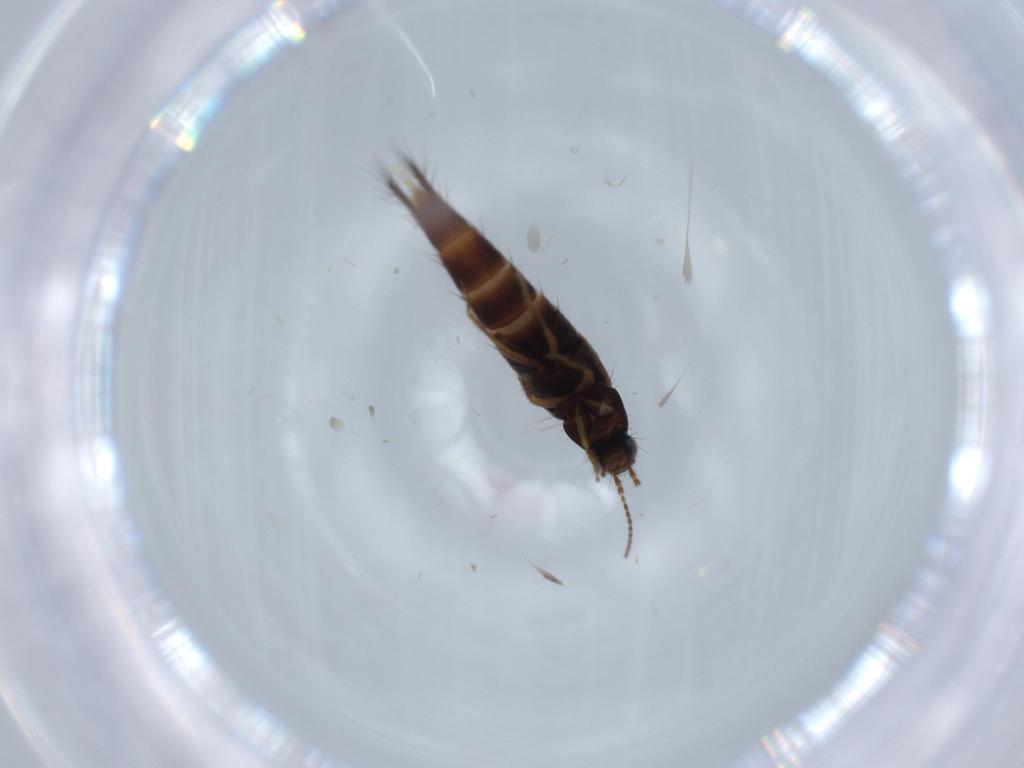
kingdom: Animalia
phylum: Arthropoda
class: Insecta
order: Coleoptera
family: Staphylinidae
